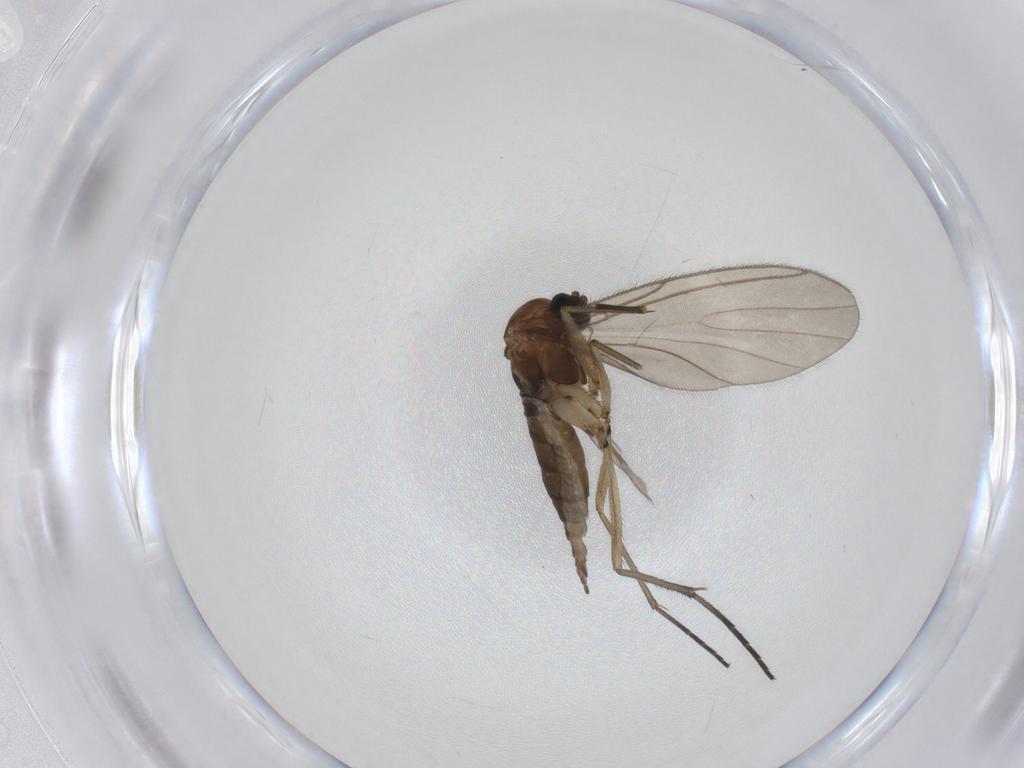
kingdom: Animalia
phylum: Arthropoda
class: Insecta
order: Diptera
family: Sciaridae
